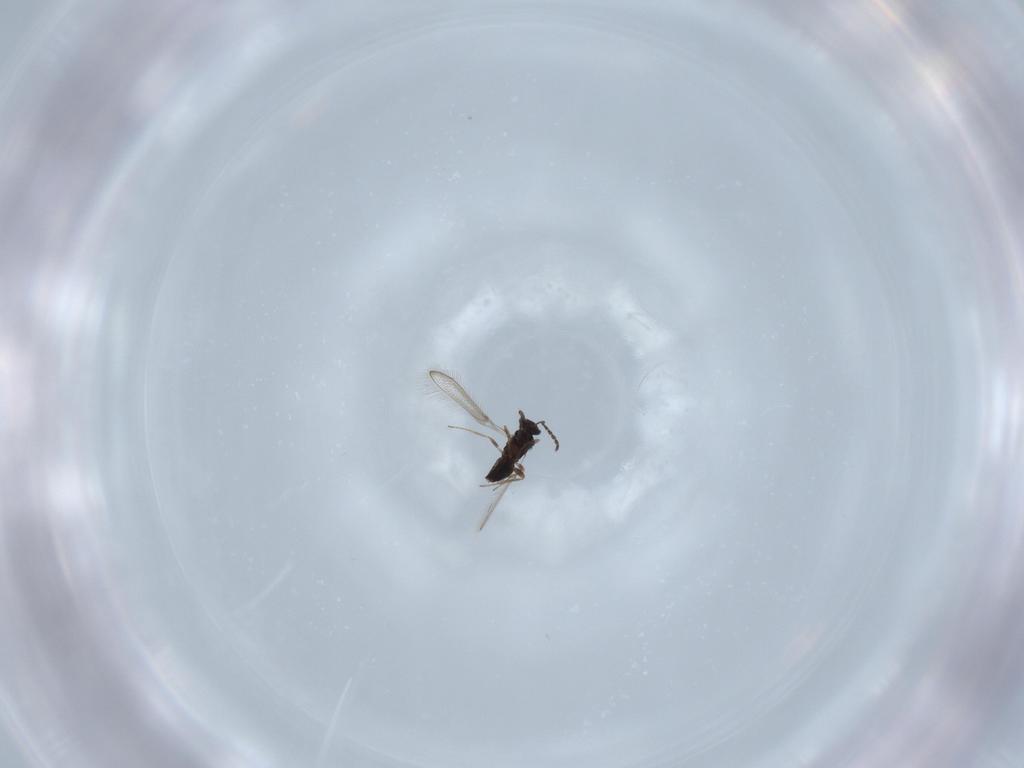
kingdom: Animalia
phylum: Arthropoda
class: Insecta
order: Hymenoptera
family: Mymaridae
